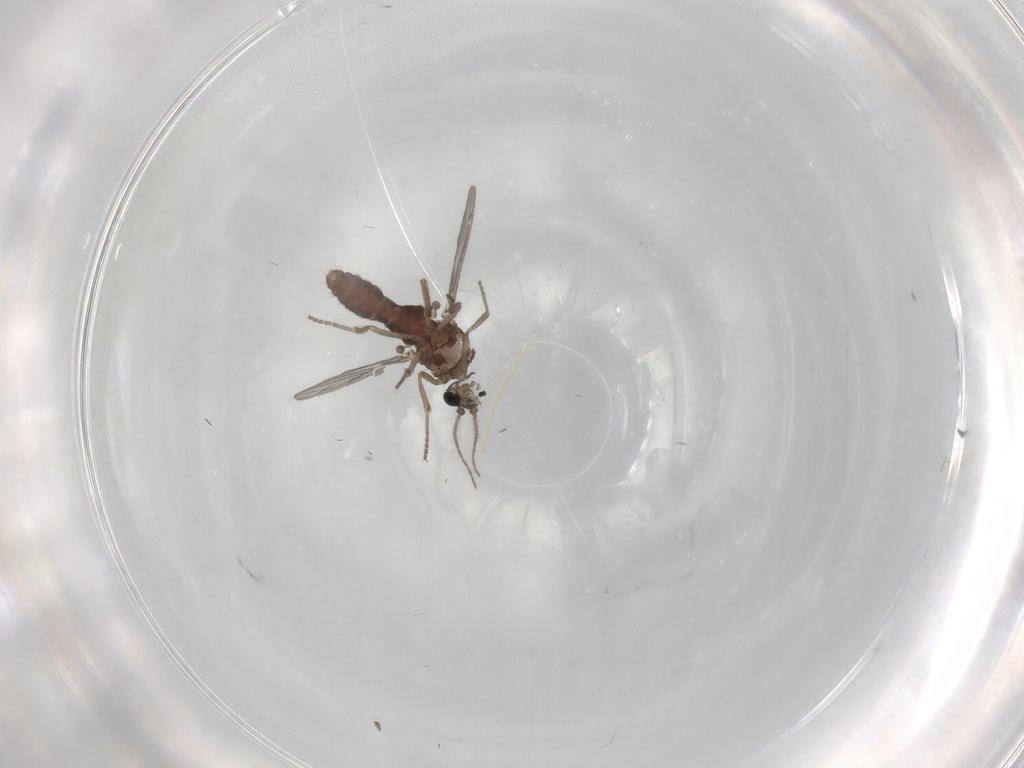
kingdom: Animalia
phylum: Arthropoda
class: Insecta
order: Diptera
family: Ceratopogonidae
